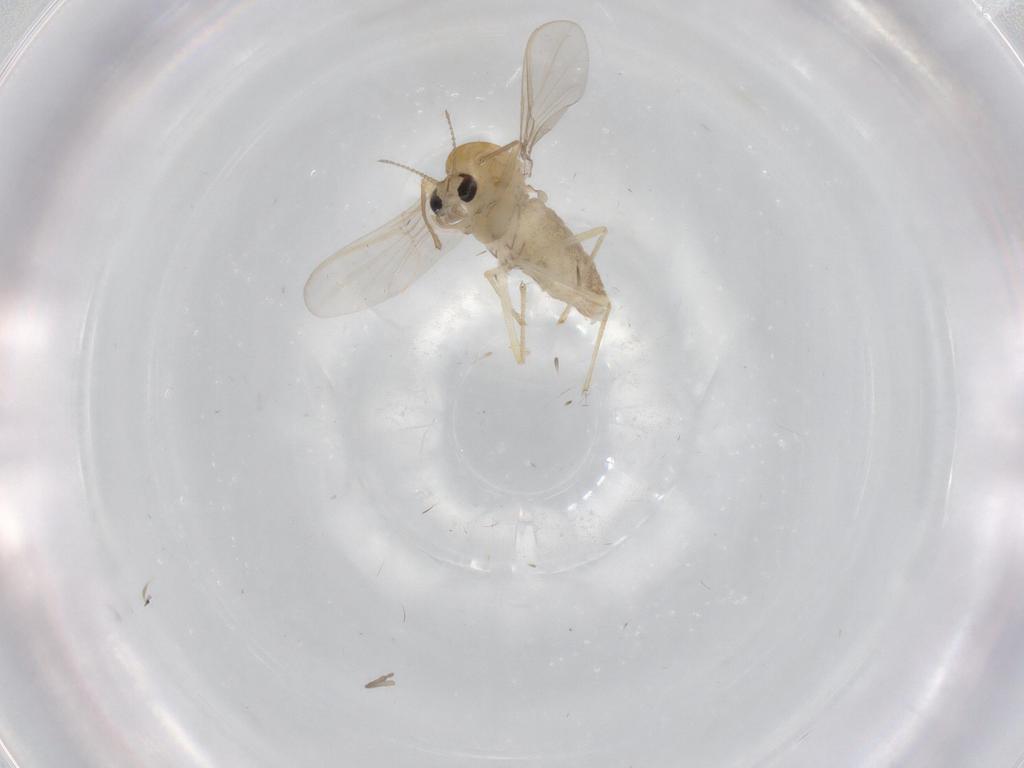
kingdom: Animalia
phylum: Arthropoda
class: Insecta
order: Diptera
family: Chironomidae
